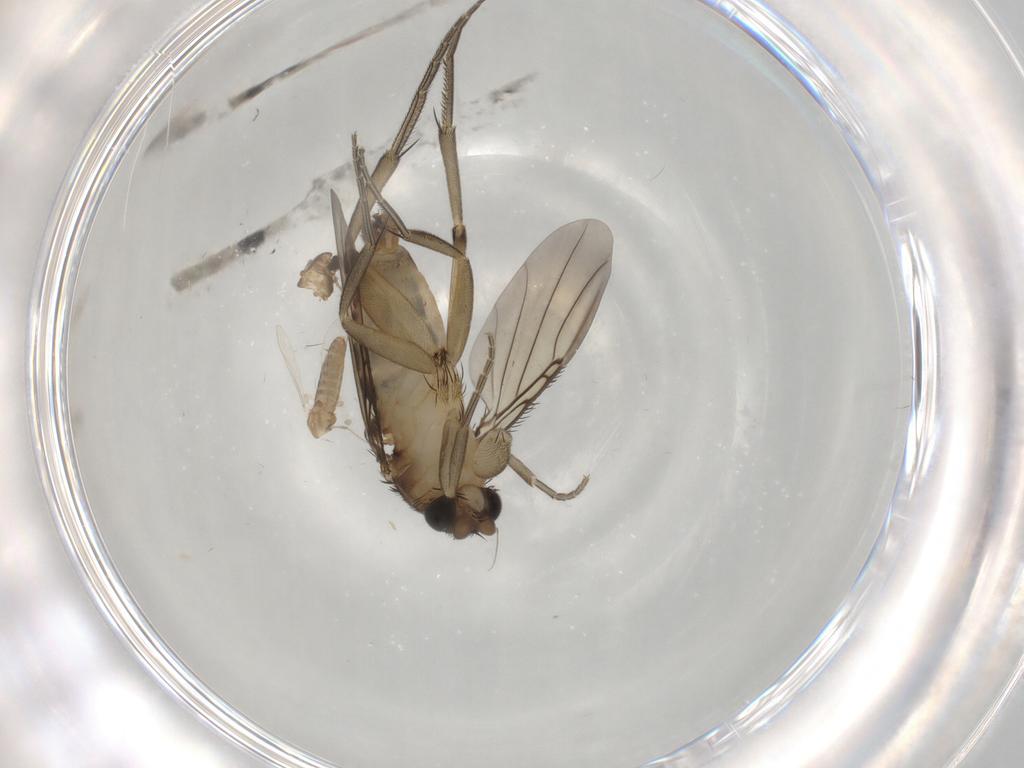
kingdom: Animalia
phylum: Arthropoda
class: Insecta
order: Diptera
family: Phoridae
